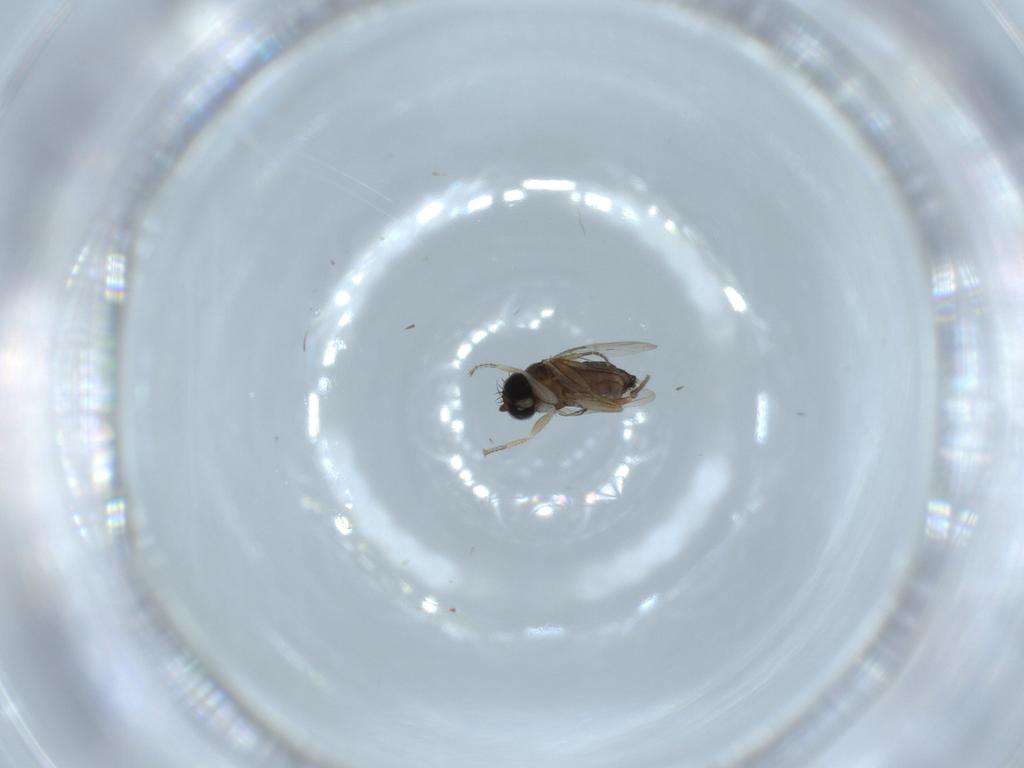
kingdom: Animalia
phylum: Arthropoda
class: Insecta
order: Diptera
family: Phoridae
